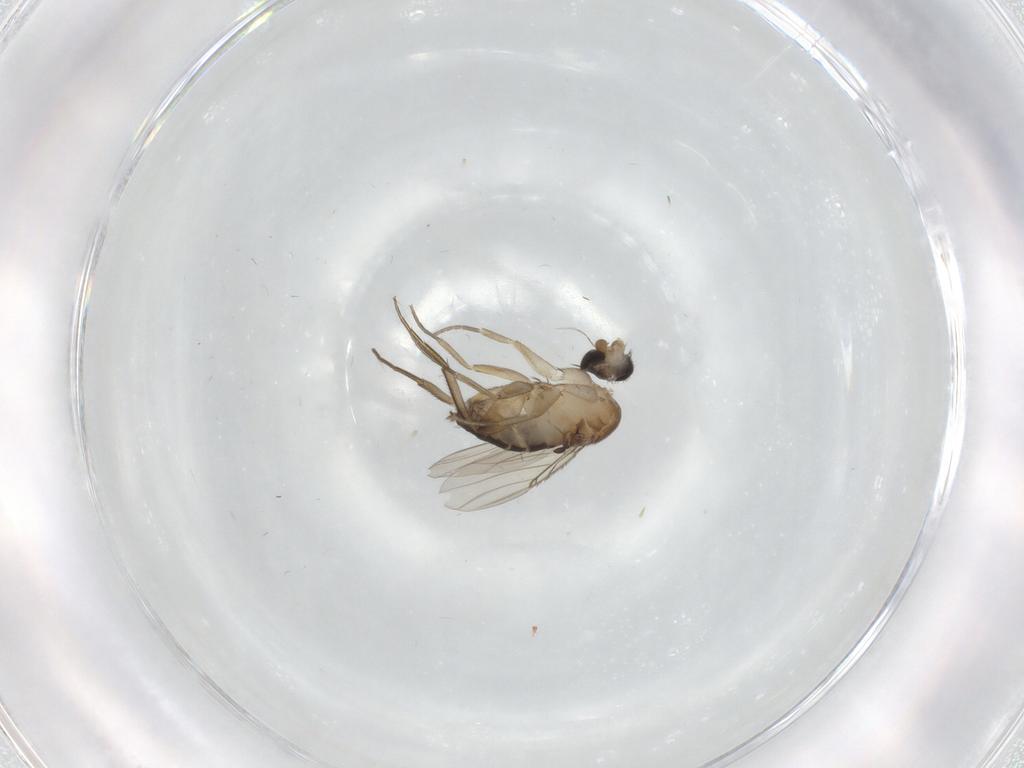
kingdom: Animalia
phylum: Arthropoda
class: Insecta
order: Diptera
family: Phoridae
